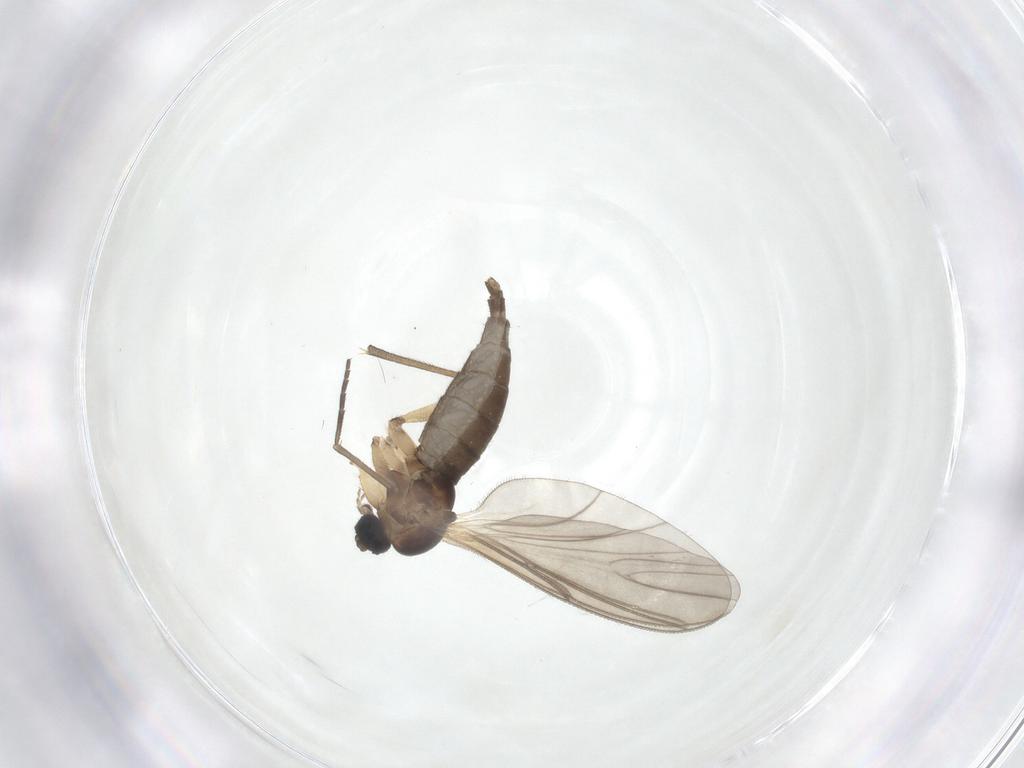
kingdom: Animalia
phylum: Arthropoda
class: Insecta
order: Diptera
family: Sciaridae
